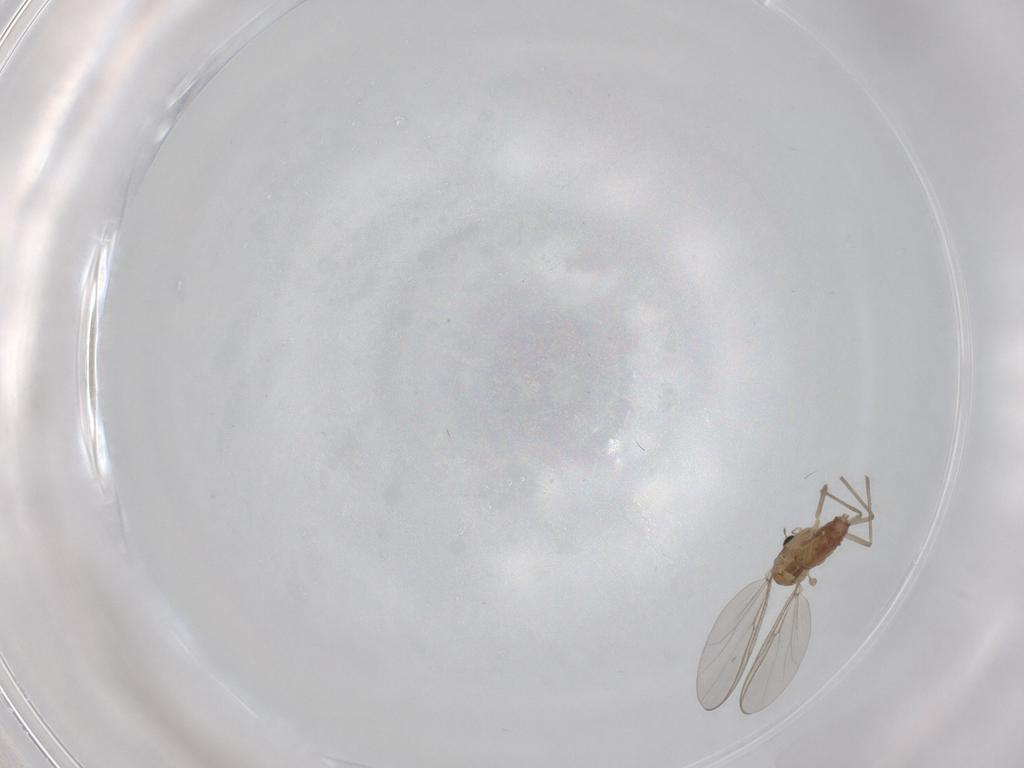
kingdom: Animalia
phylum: Arthropoda
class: Insecta
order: Diptera
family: Chironomidae
